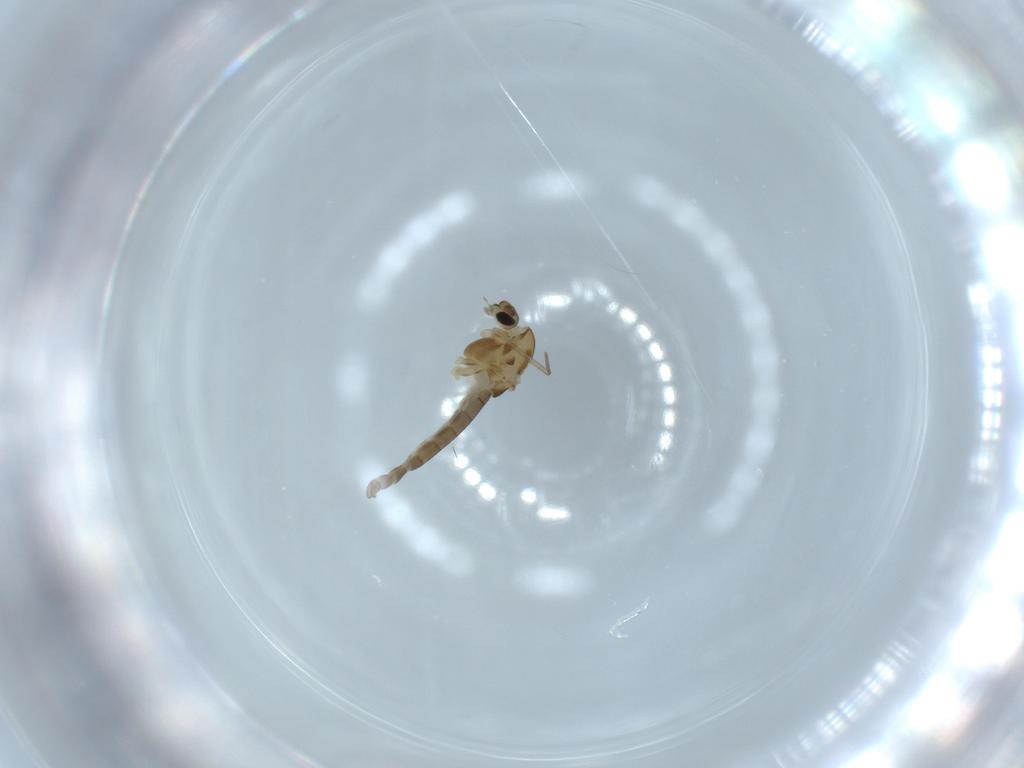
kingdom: Animalia
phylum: Arthropoda
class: Insecta
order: Diptera
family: Chironomidae
